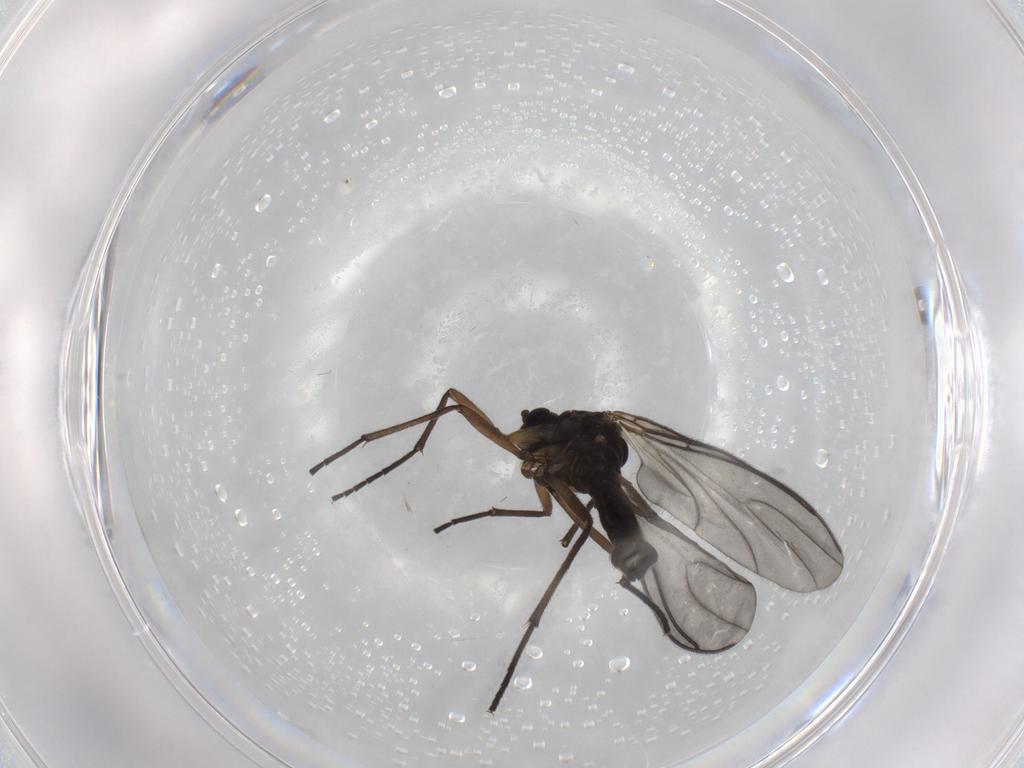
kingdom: Animalia
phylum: Arthropoda
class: Insecta
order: Diptera
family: Sciaridae
